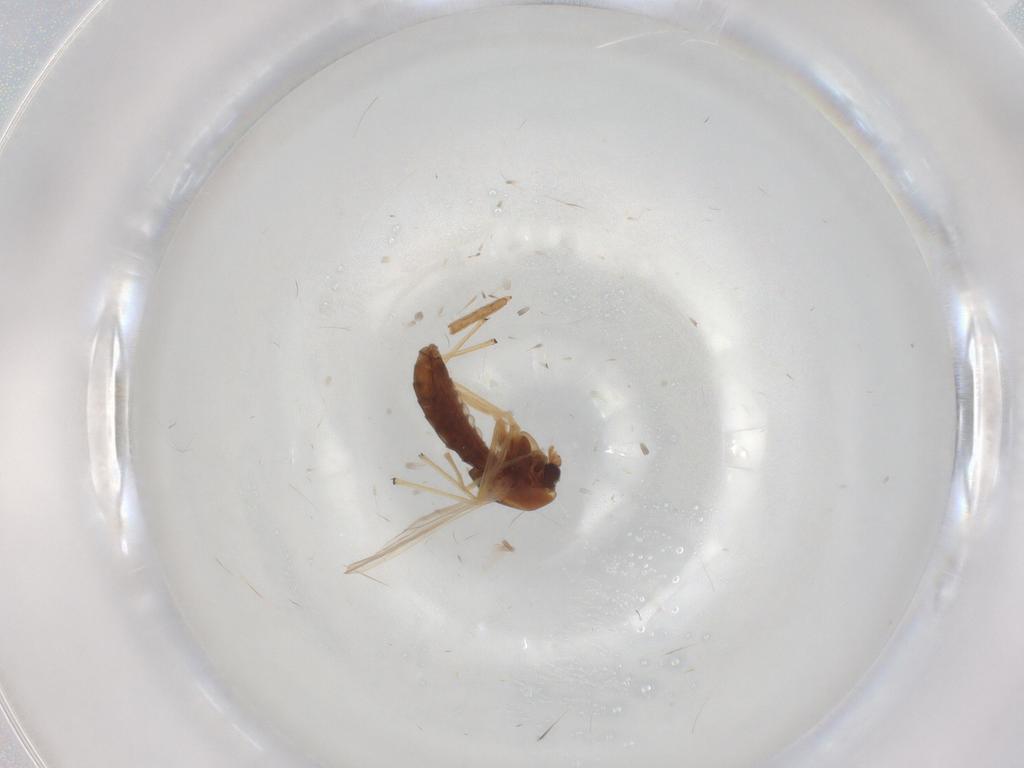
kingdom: Animalia
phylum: Arthropoda
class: Insecta
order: Diptera
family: Chironomidae
